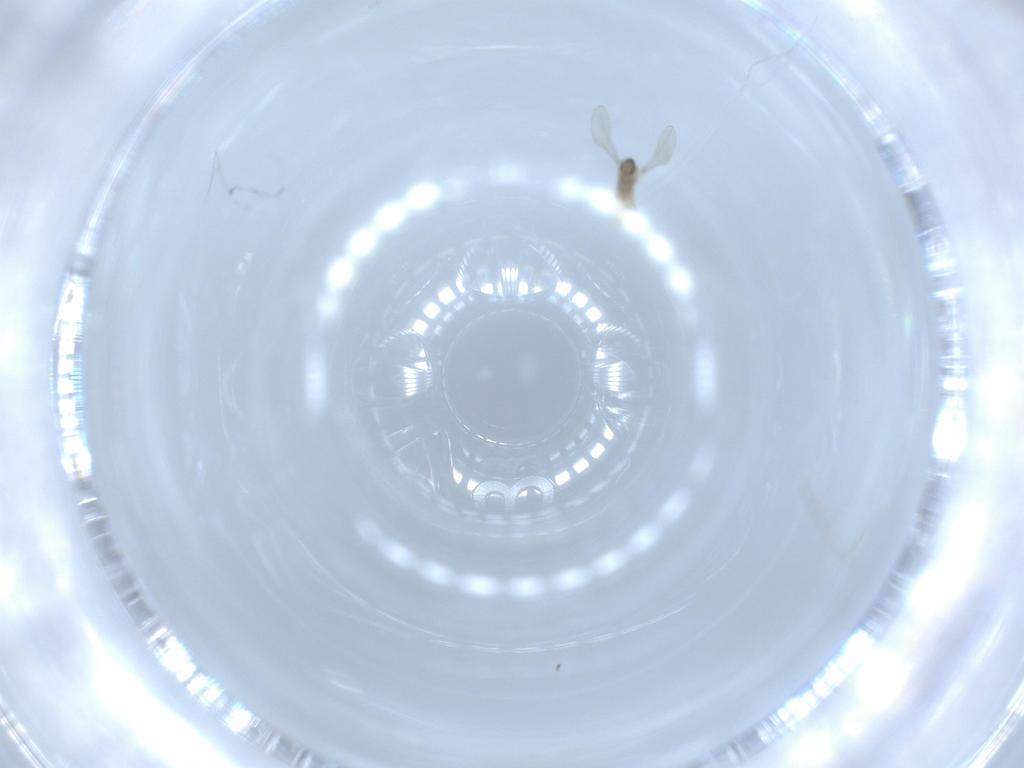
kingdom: Animalia
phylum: Arthropoda
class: Insecta
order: Diptera
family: Cecidomyiidae
